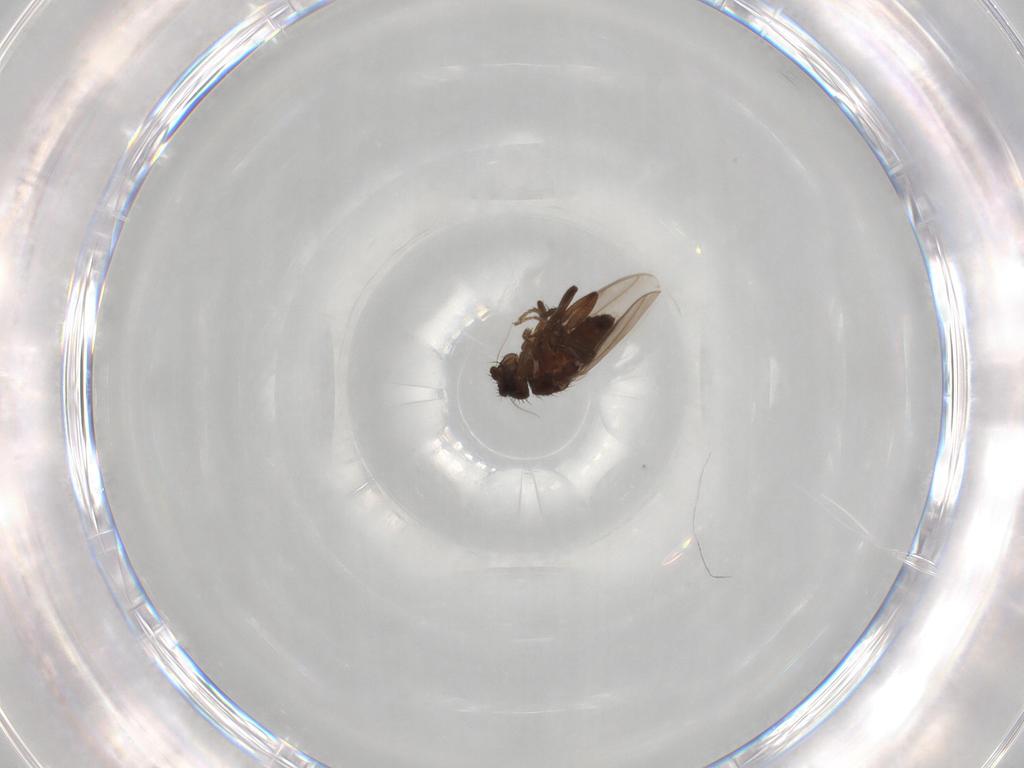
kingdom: Animalia
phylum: Arthropoda
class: Insecta
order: Diptera
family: Sphaeroceridae
